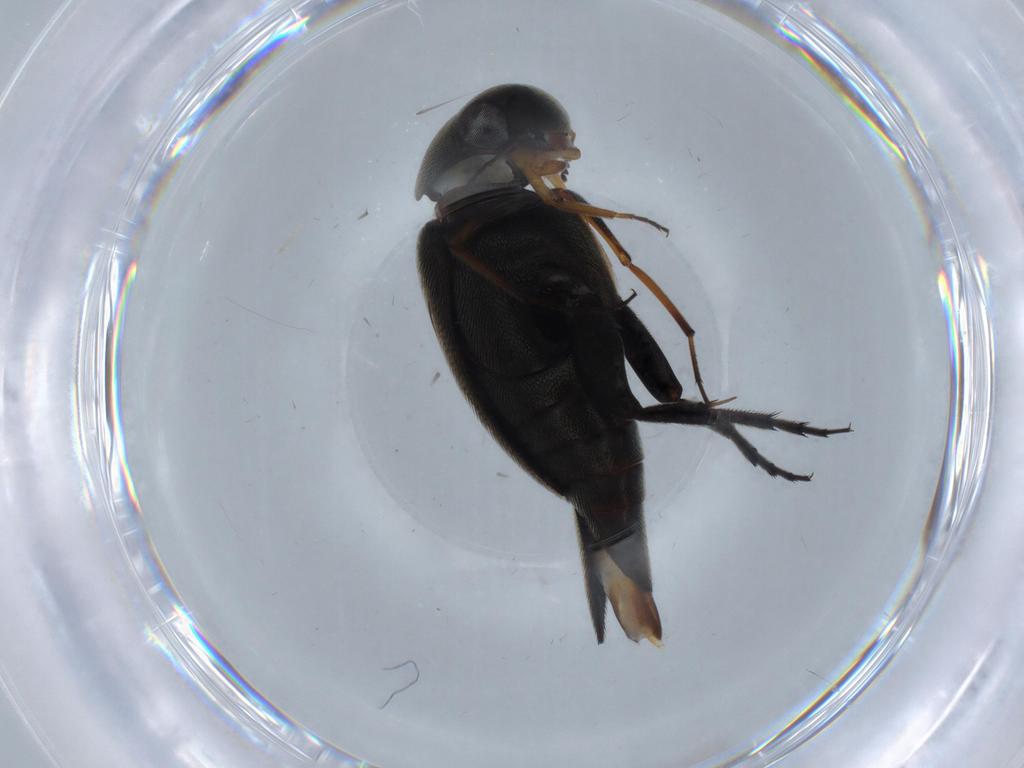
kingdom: Animalia
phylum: Arthropoda
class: Insecta
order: Coleoptera
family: Mordellidae
